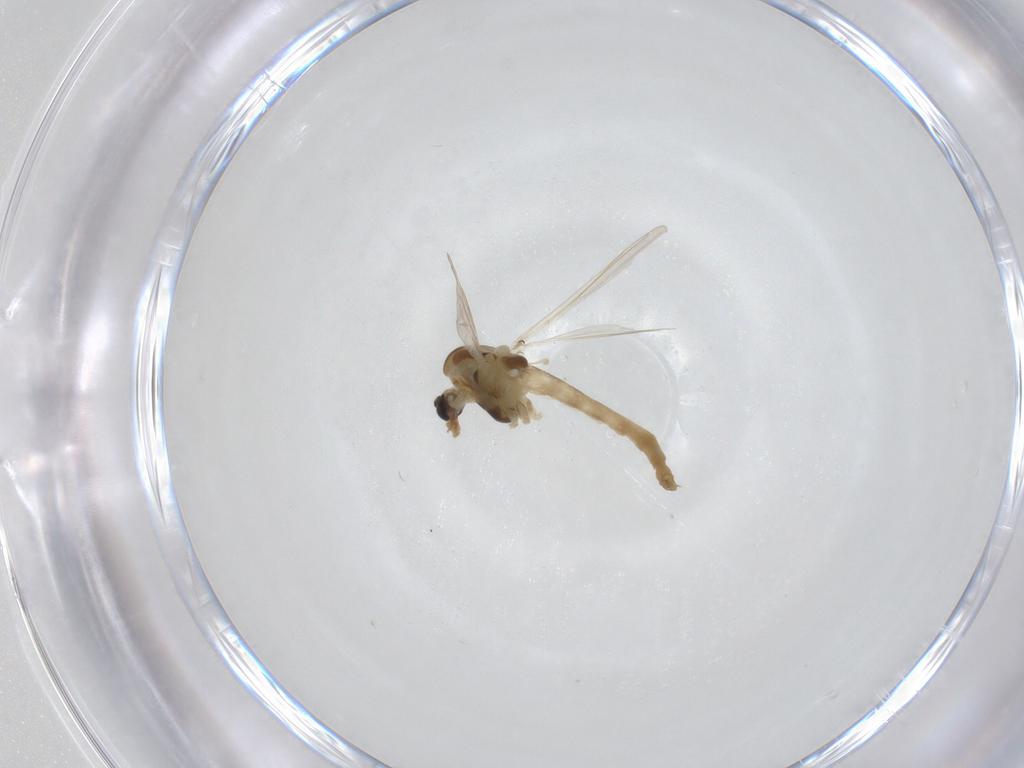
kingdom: Animalia
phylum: Arthropoda
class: Insecta
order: Diptera
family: Chironomidae
